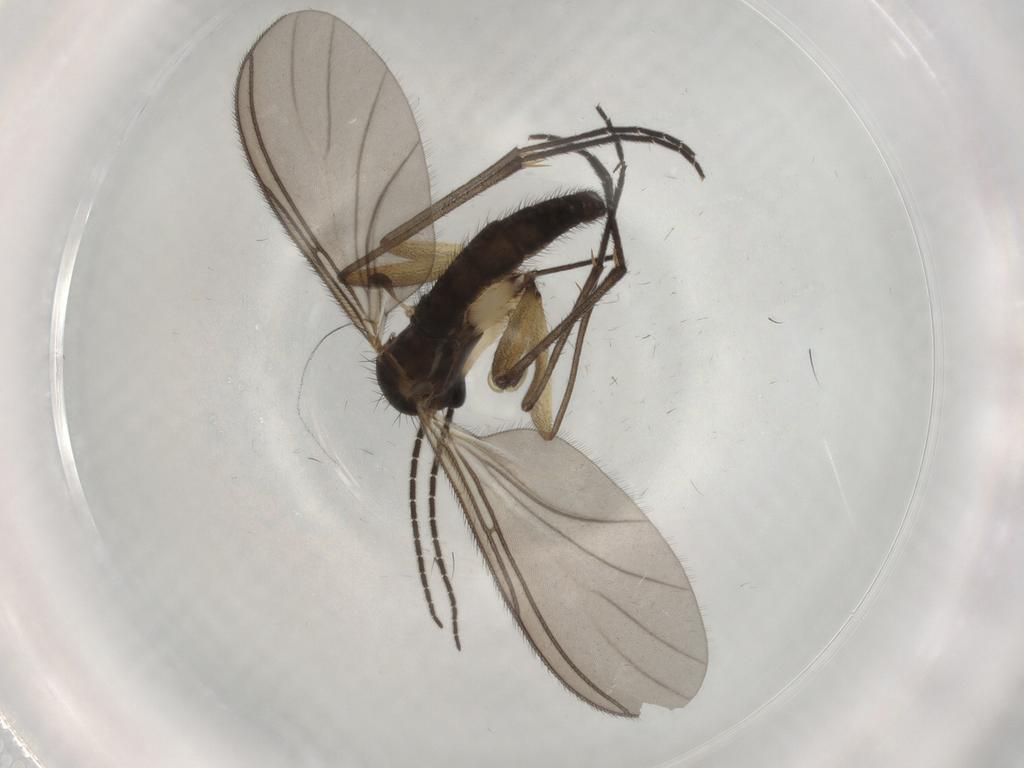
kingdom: Animalia
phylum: Arthropoda
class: Insecta
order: Diptera
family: Sciaridae
